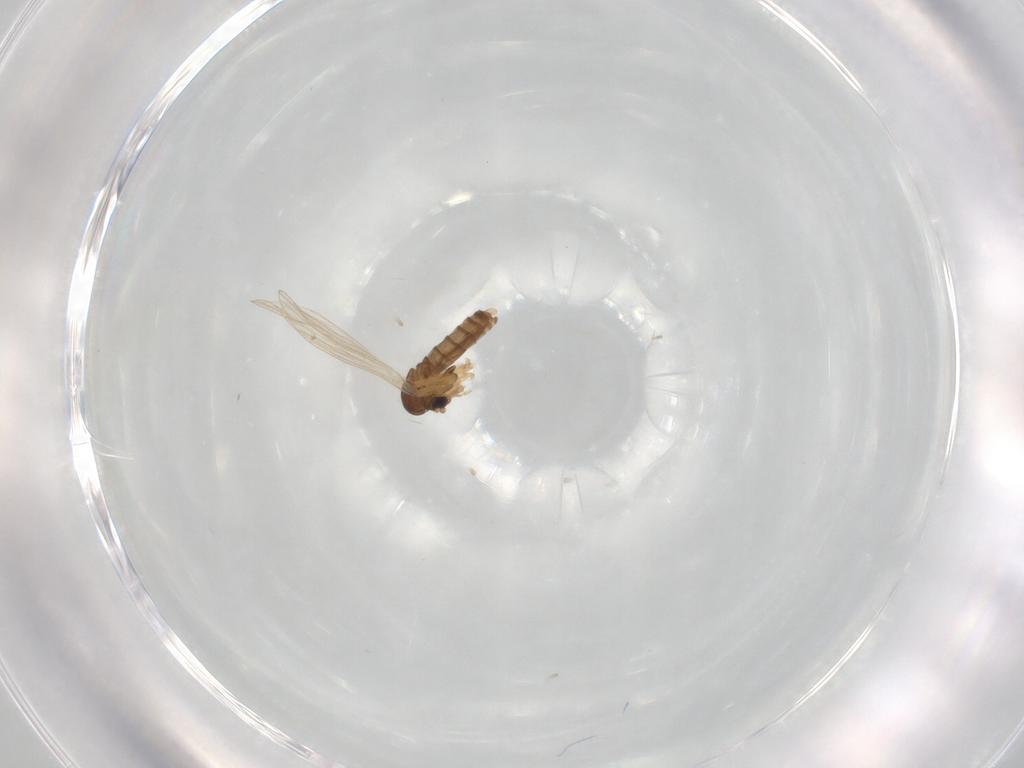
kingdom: Animalia
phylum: Arthropoda
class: Insecta
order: Diptera
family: Psychodidae
